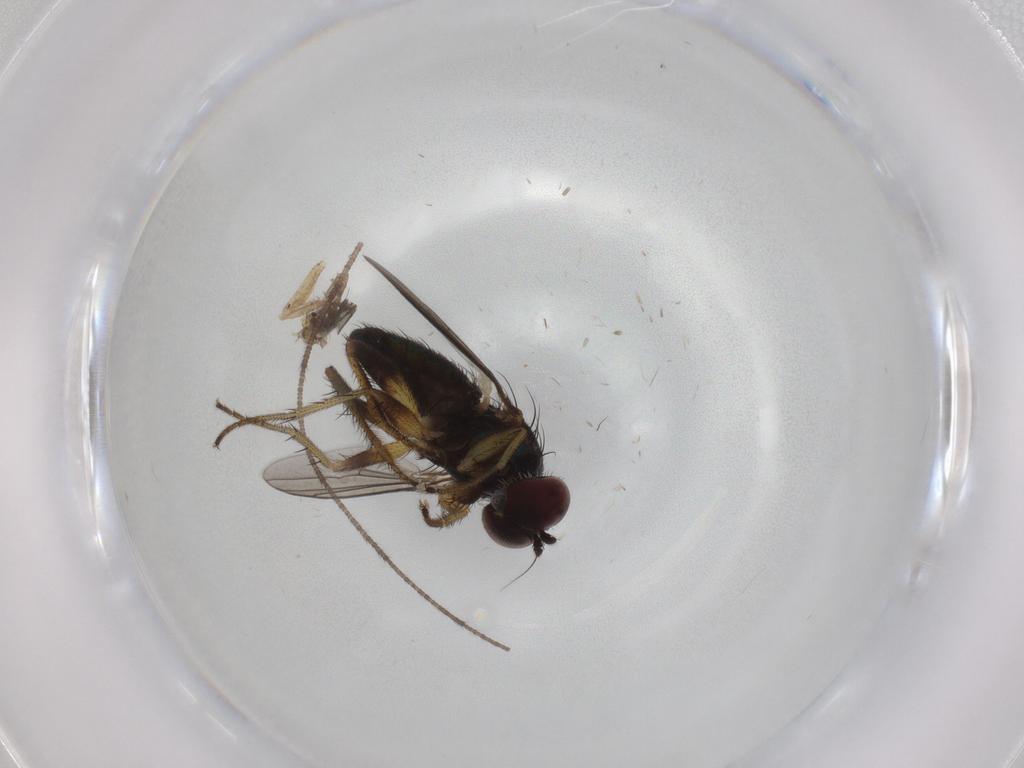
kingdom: Animalia
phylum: Arthropoda
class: Insecta
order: Diptera
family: Dolichopodidae
